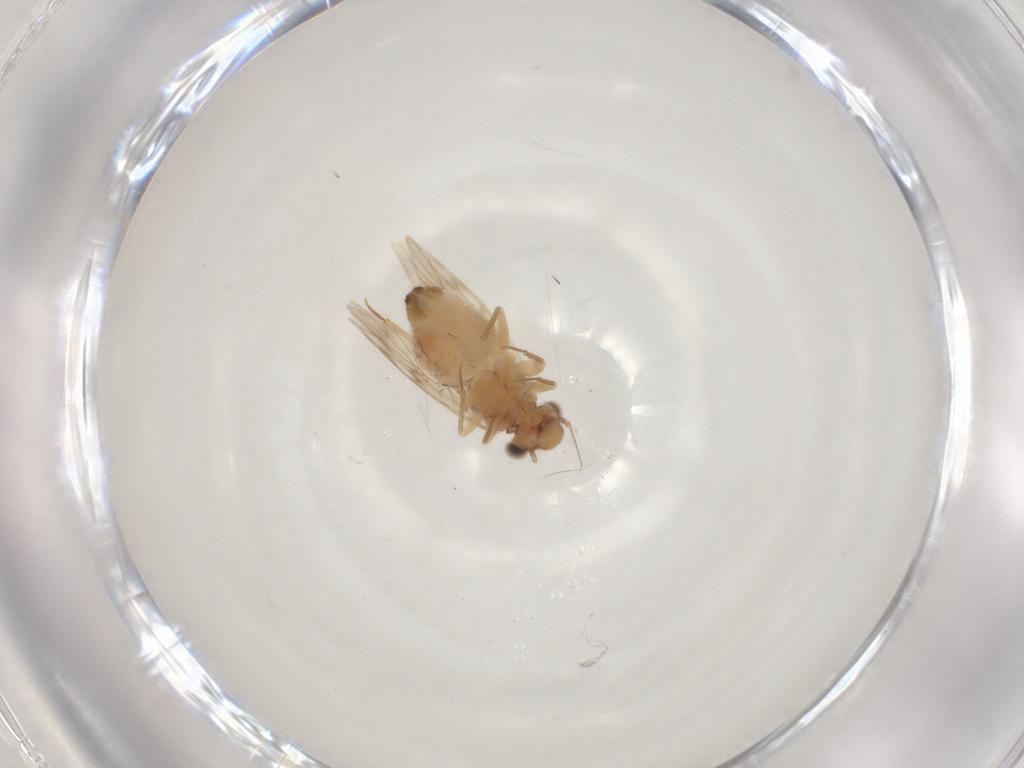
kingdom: Animalia
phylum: Arthropoda
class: Insecta
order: Psocodea
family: Lepidopsocidae
